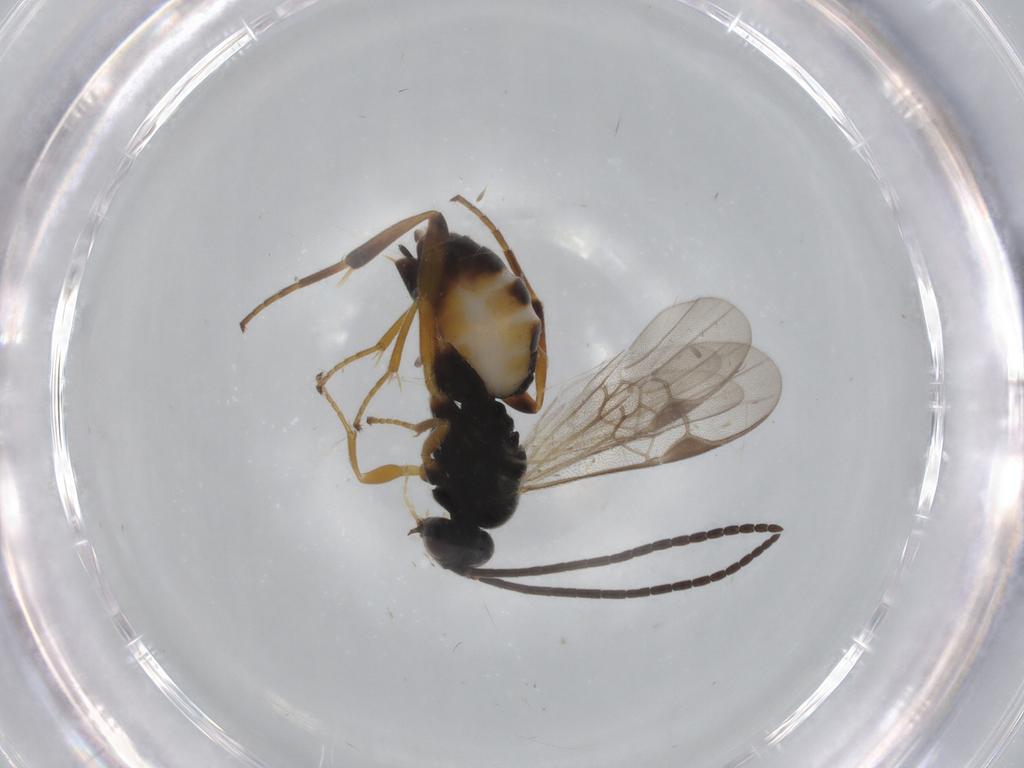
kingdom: Animalia
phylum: Arthropoda
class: Insecta
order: Hymenoptera
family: Braconidae
